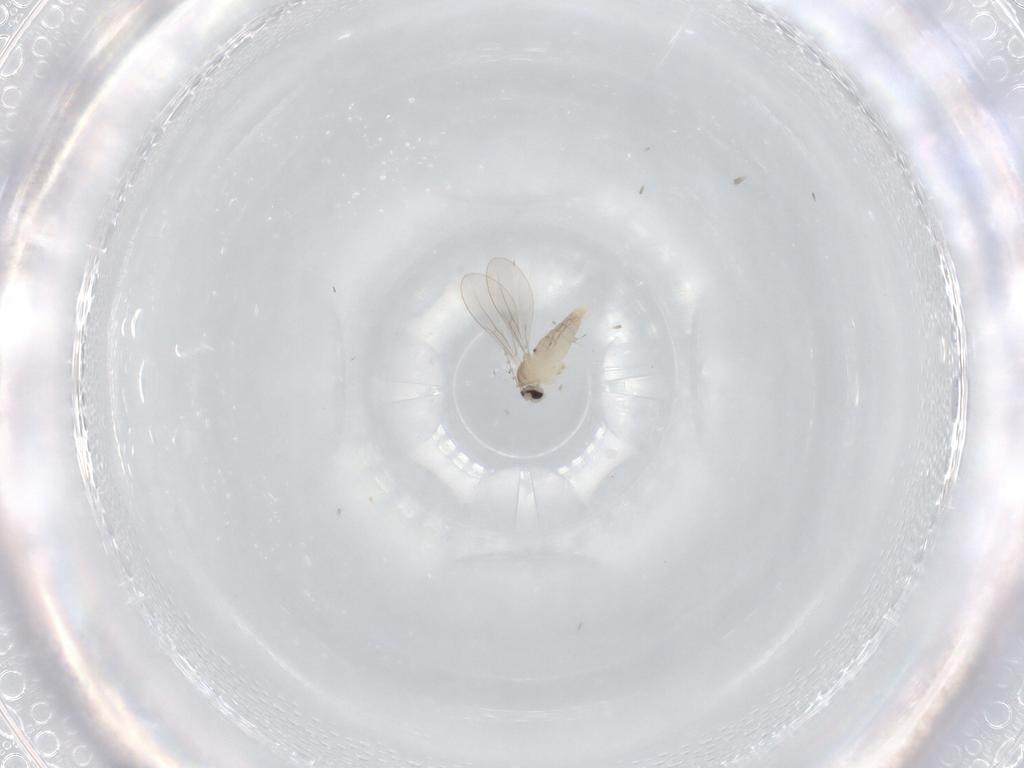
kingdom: Animalia
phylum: Arthropoda
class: Insecta
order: Diptera
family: Cecidomyiidae
